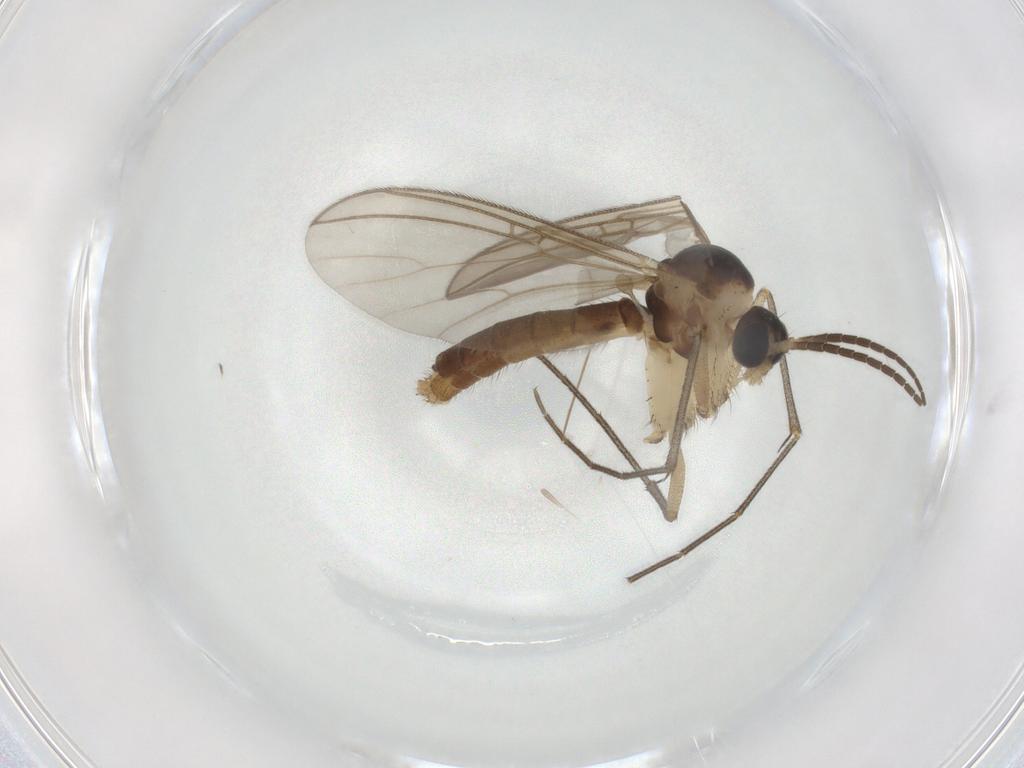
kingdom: Animalia
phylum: Arthropoda
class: Insecta
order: Diptera
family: Mycetophilidae
